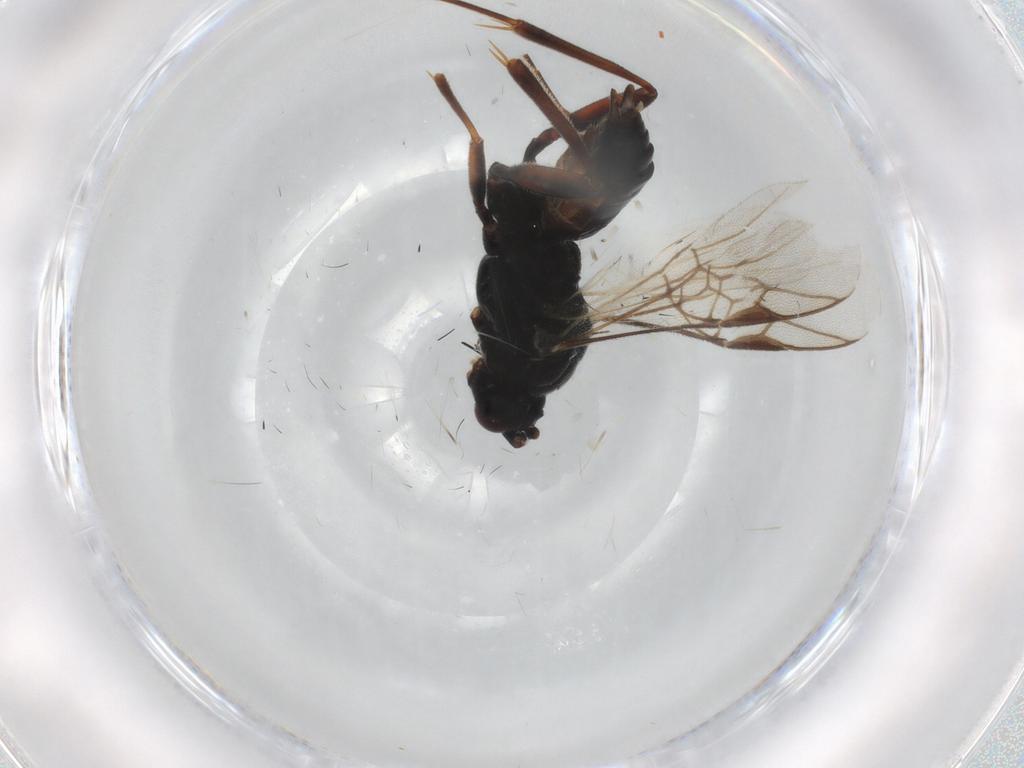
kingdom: Animalia
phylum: Arthropoda
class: Insecta
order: Hymenoptera
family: Braconidae
